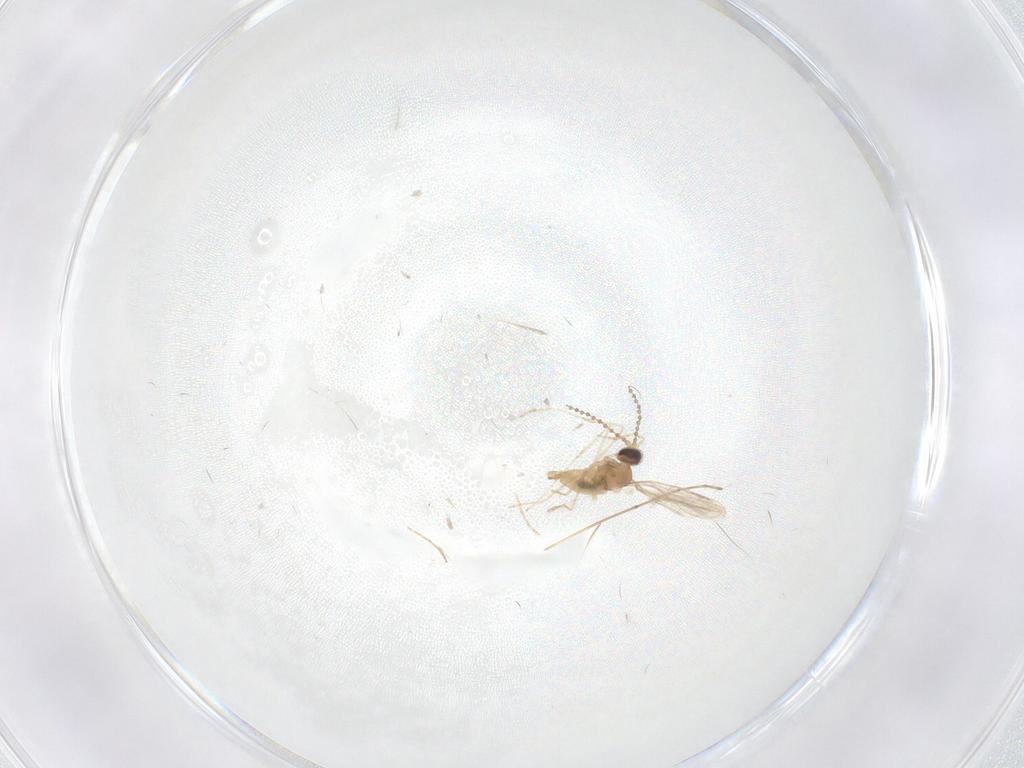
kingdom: Animalia
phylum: Arthropoda
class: Insecta
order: Diptera
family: Cecidomyiidae
